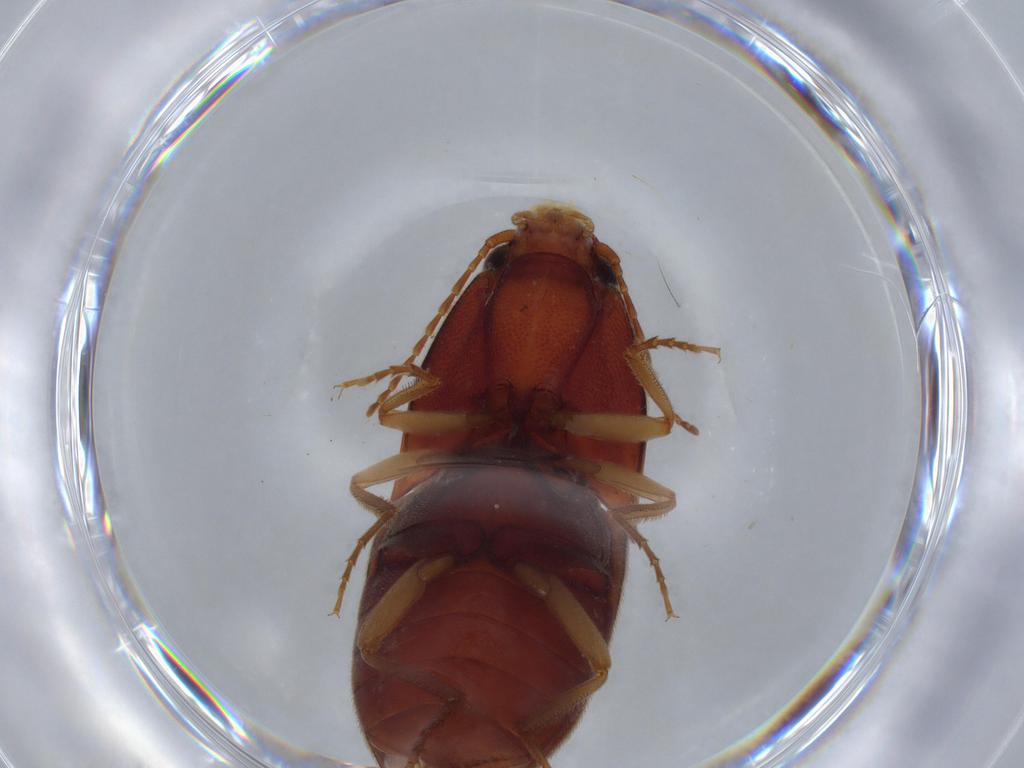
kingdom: Animalia
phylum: Arthropoda
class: Insecta
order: Coleoptera
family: Elateridae
